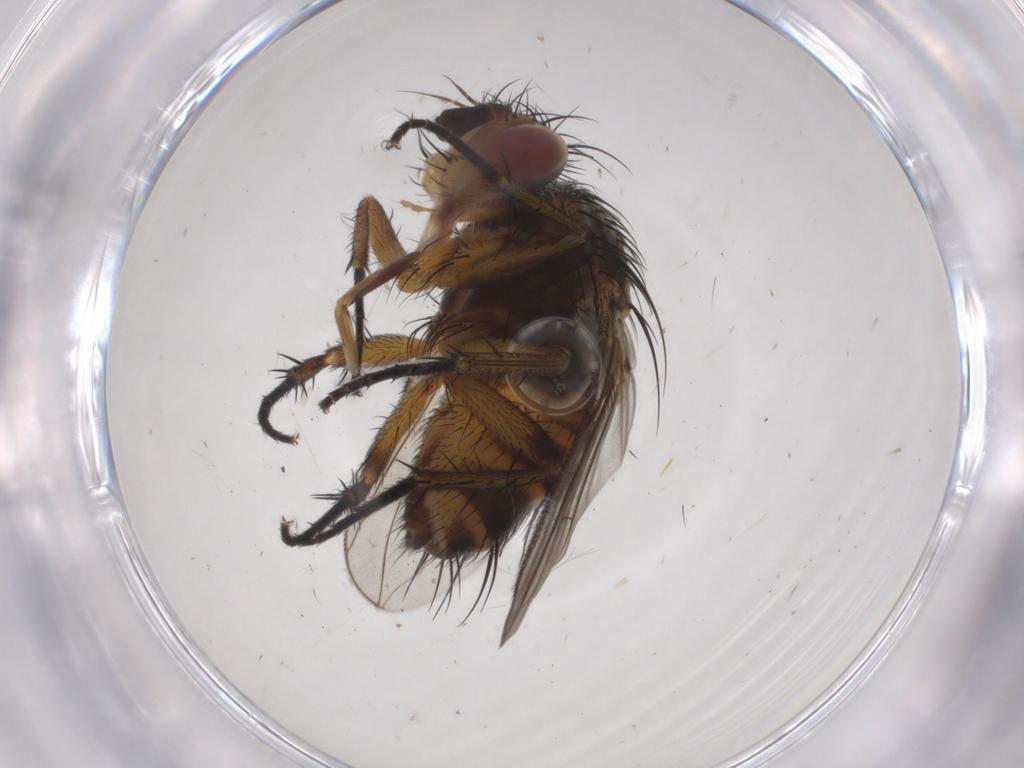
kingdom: Animalia
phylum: Arthropoda
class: Insecta
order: Diptera
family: Tachinidae
